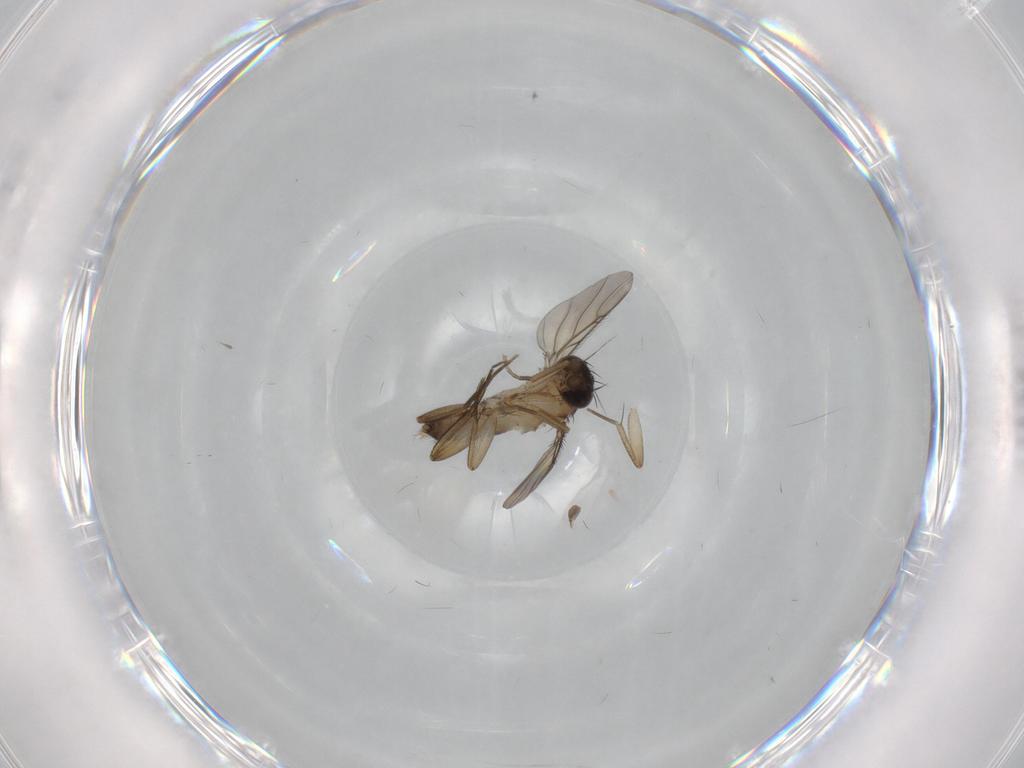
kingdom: Animalia
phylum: Arthropoda
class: Insecta
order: Diptera
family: Phoridae
